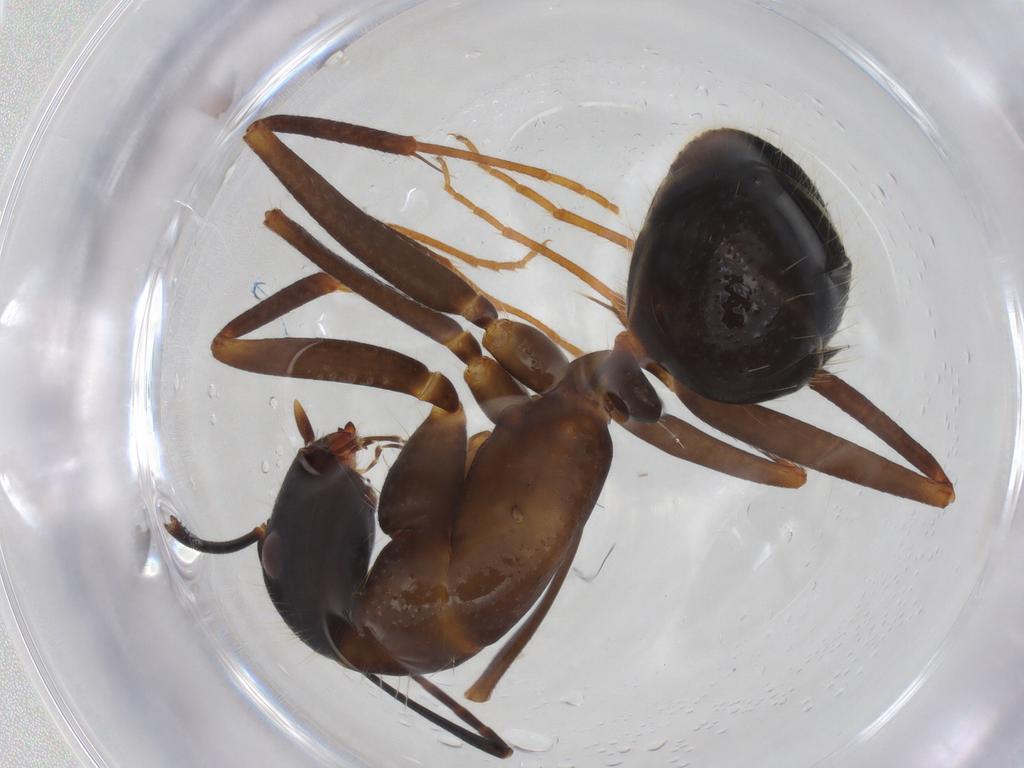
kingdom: Animalia
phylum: Arthropoda
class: Insecta
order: Hymenoptera
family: Formicidae
